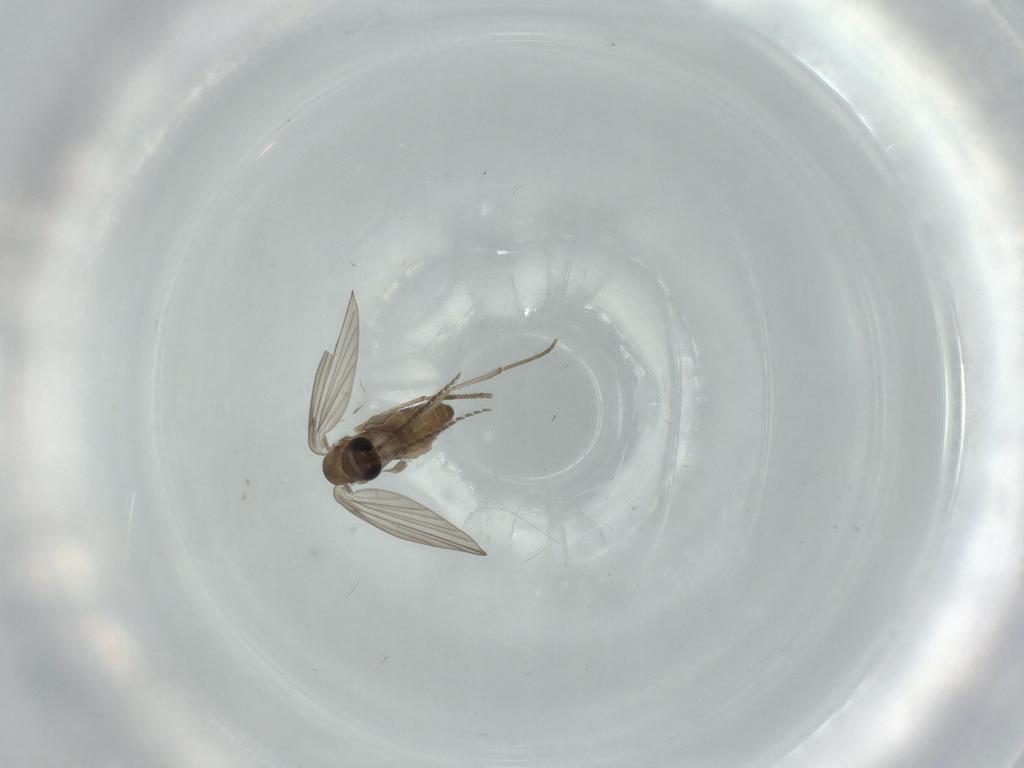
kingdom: Animalia
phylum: Arthropoda
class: Insecta
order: Diptera
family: Psychodidae
